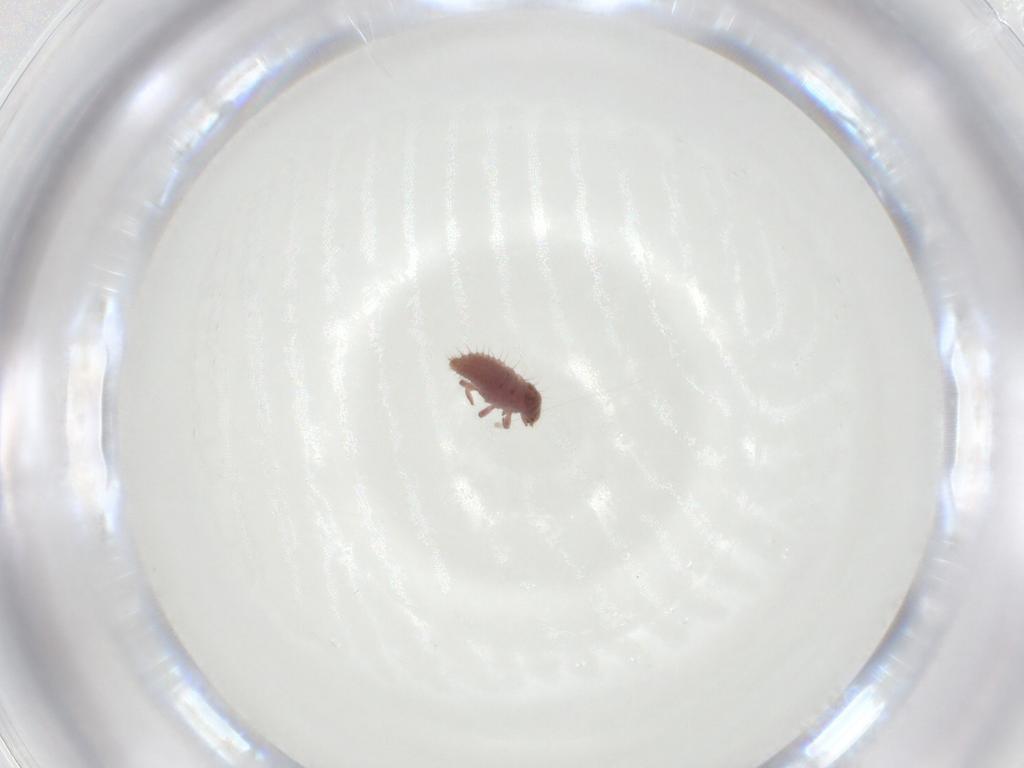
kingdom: Animalia
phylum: Arthropoda
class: Insecta
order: Coleoptera
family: Coccinellidae
